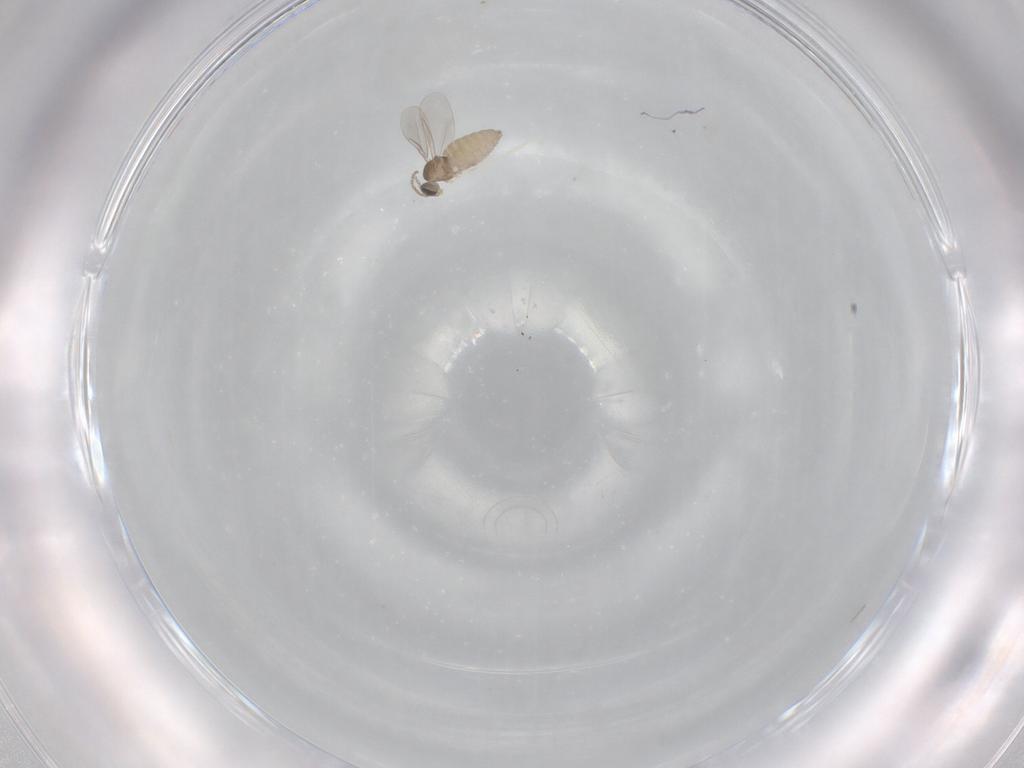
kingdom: Animalia
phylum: Arthropoda
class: Insecta
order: Diptera
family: Cecidomyiidae
